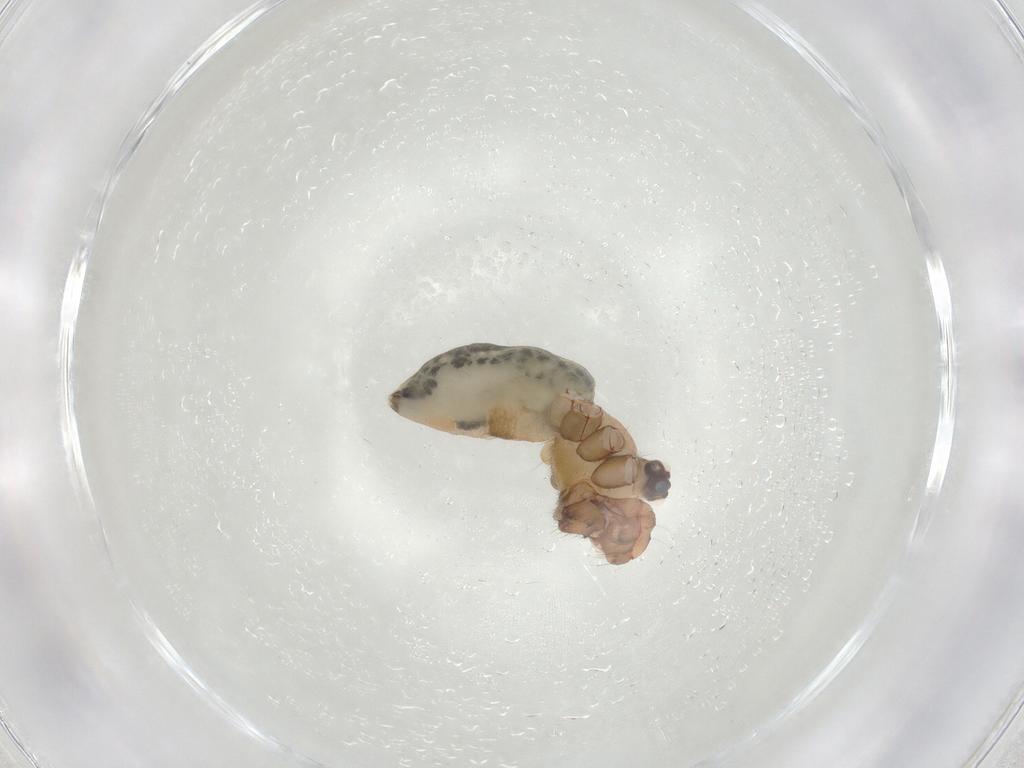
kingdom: Animalia
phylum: Arthropoda
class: Arachnida
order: Araneae
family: Pholcidae
